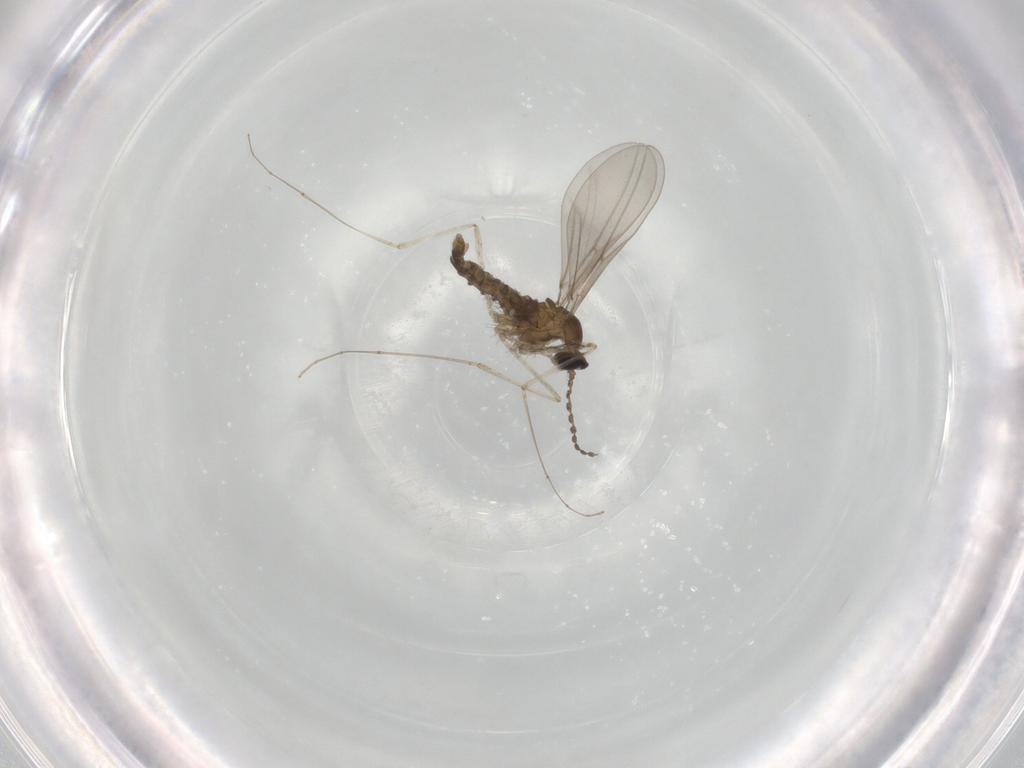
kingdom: Animalia
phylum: Arthropoda
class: Insecta
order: Diptera
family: Cecidomyiidae
